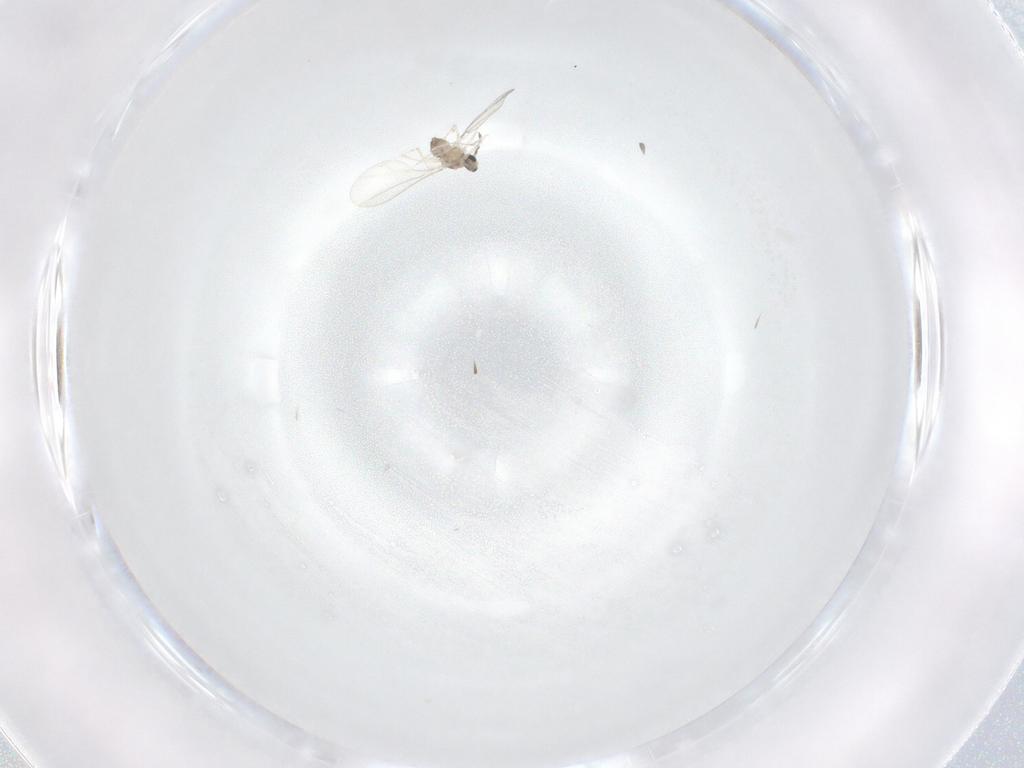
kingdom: Animalia
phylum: Arthropoda
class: Insecta
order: Diptera
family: Cecidomyiidae
